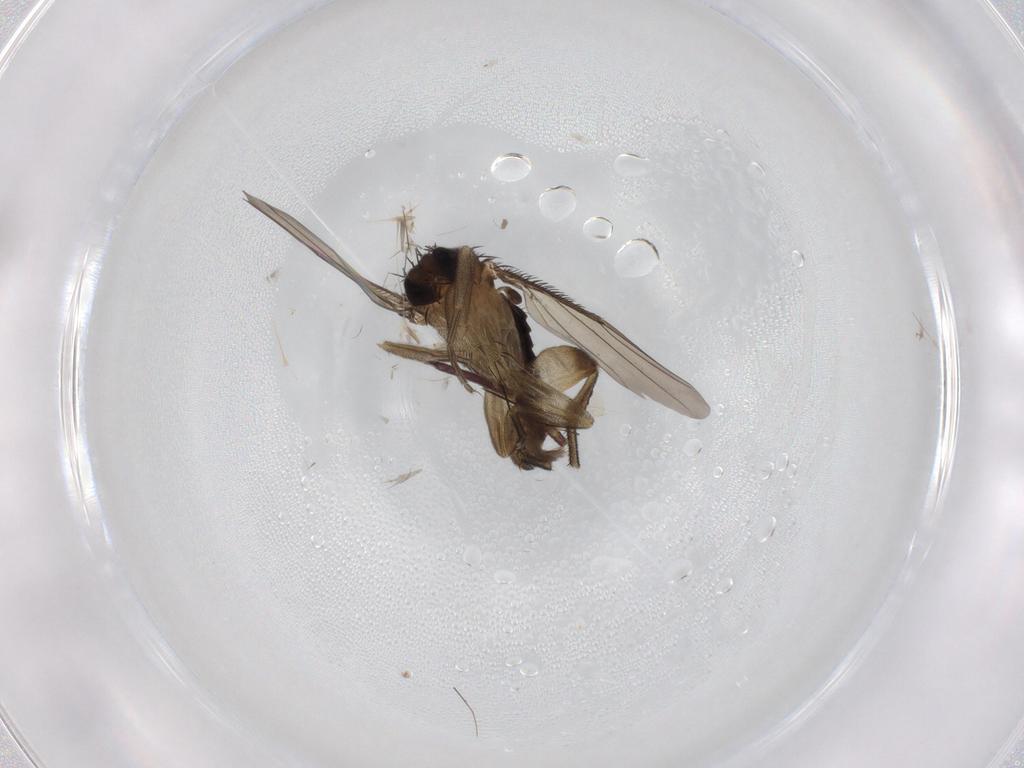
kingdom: Animalia
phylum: Arthropoda
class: Insecta
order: Diptera
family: Phoridae
